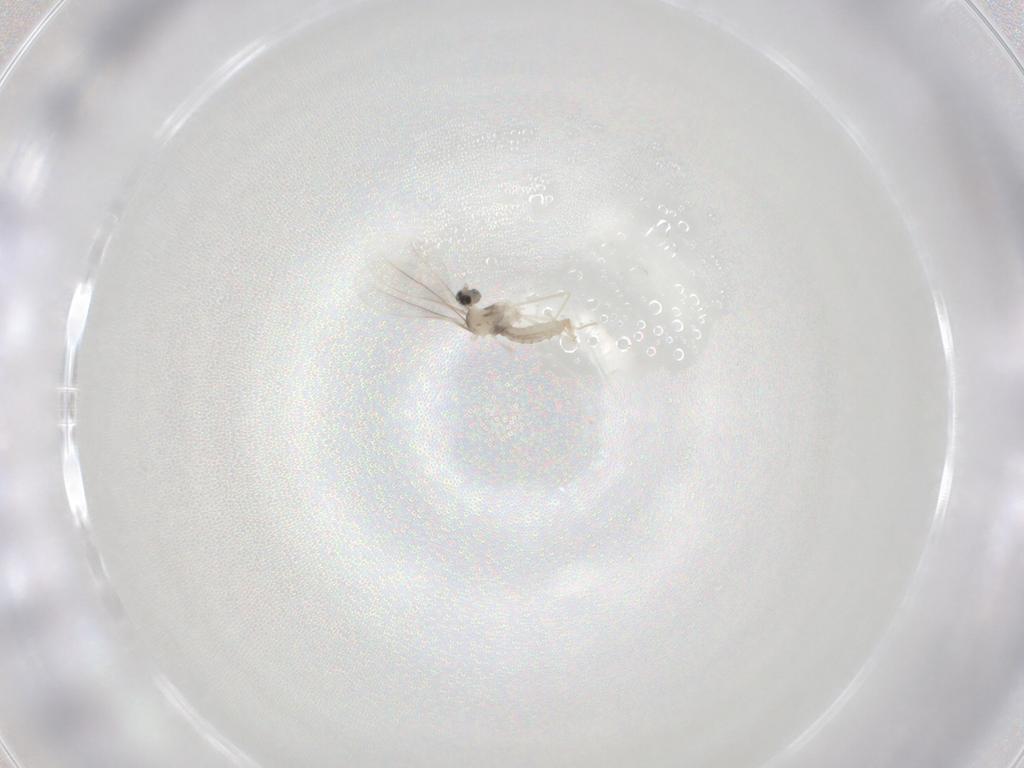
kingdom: Animalia
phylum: Arthropoda
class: Insecta
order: Diptera
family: Cecidomyiidae
